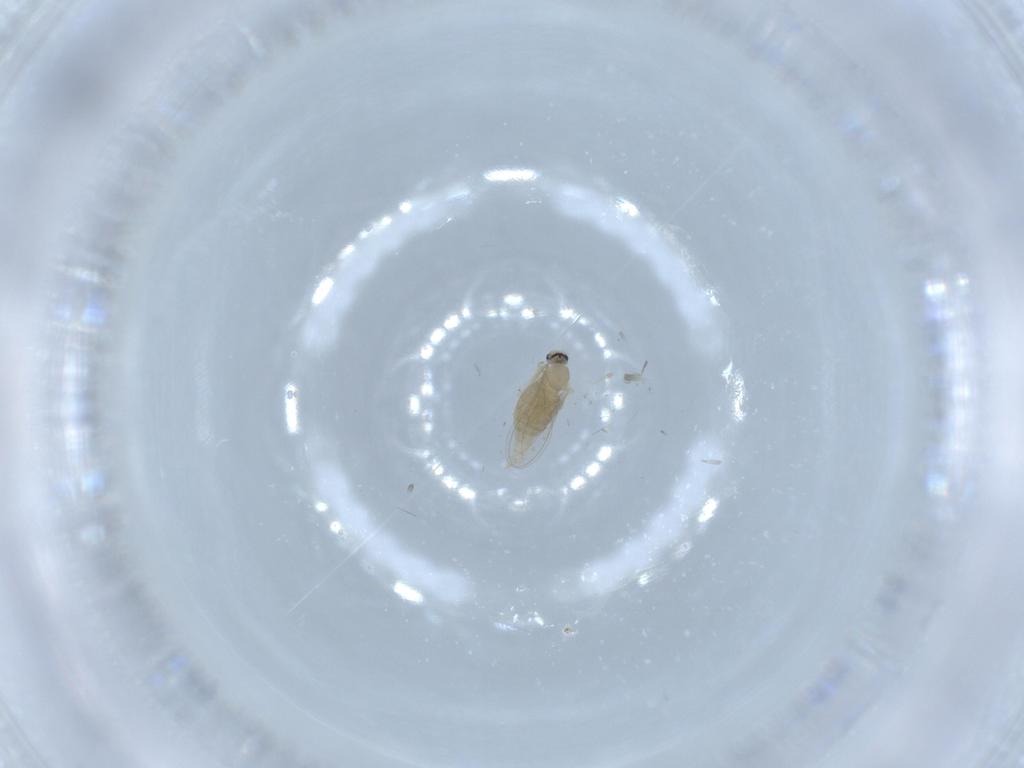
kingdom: Animalia
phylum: Arthropoda
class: Insecta
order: Diptera
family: Cecidomyiidae
